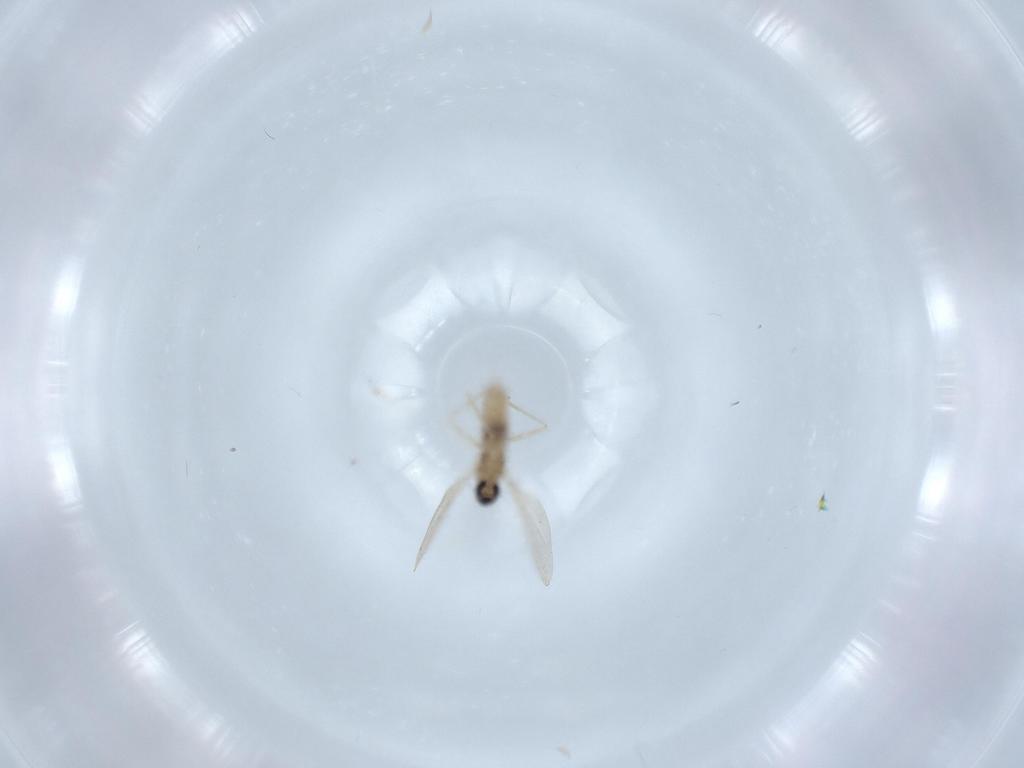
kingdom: Animalia
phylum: Arthropoda
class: Insecta
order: Diptera
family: Cecidomyiidae
